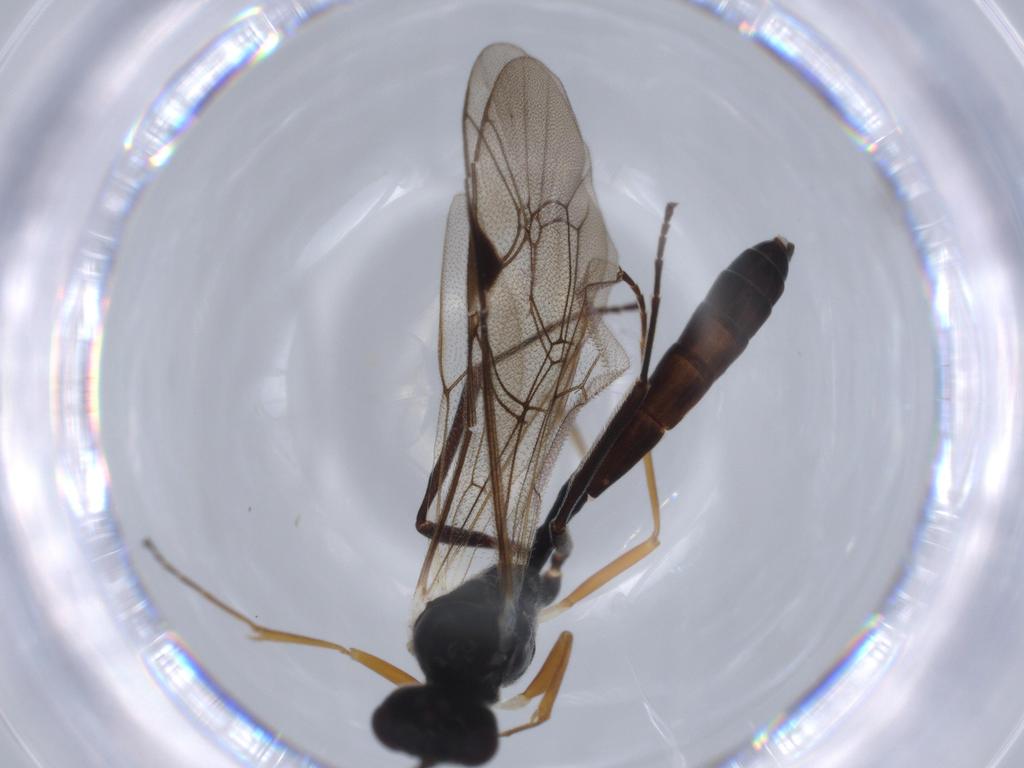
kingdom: Animalia
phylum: Arthropoda
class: Insecta
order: Hymenoptera
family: Ichneumonidae
